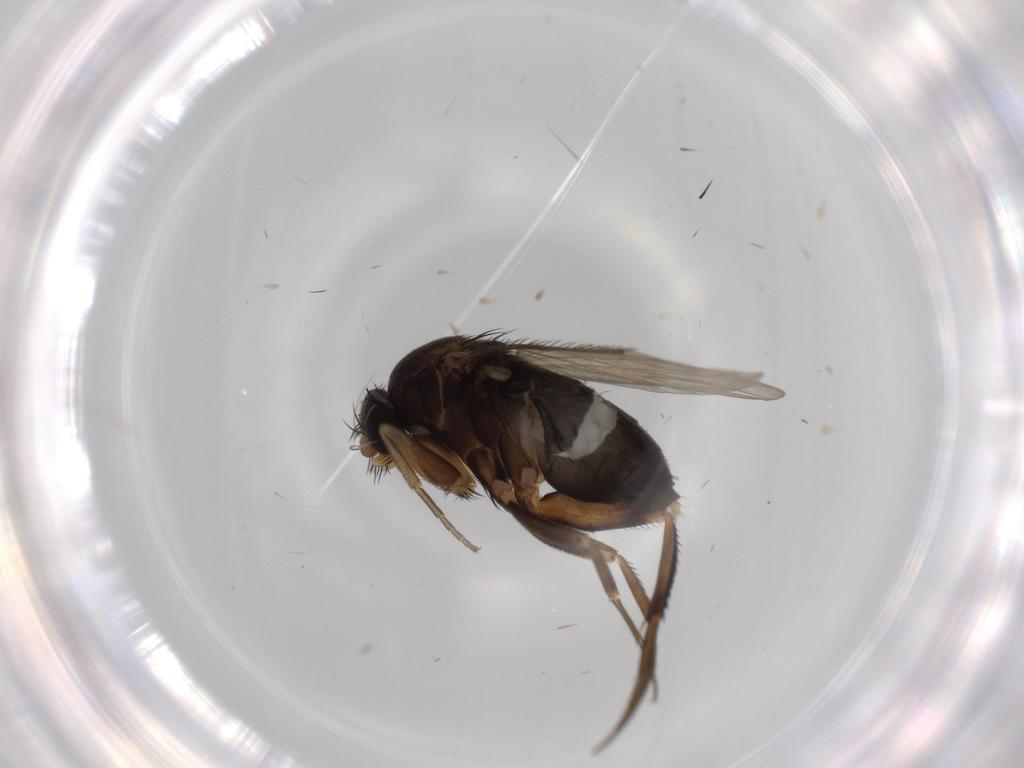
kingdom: Animalia
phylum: Arthropoda
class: Insecta
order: Diptera
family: Phoridae
